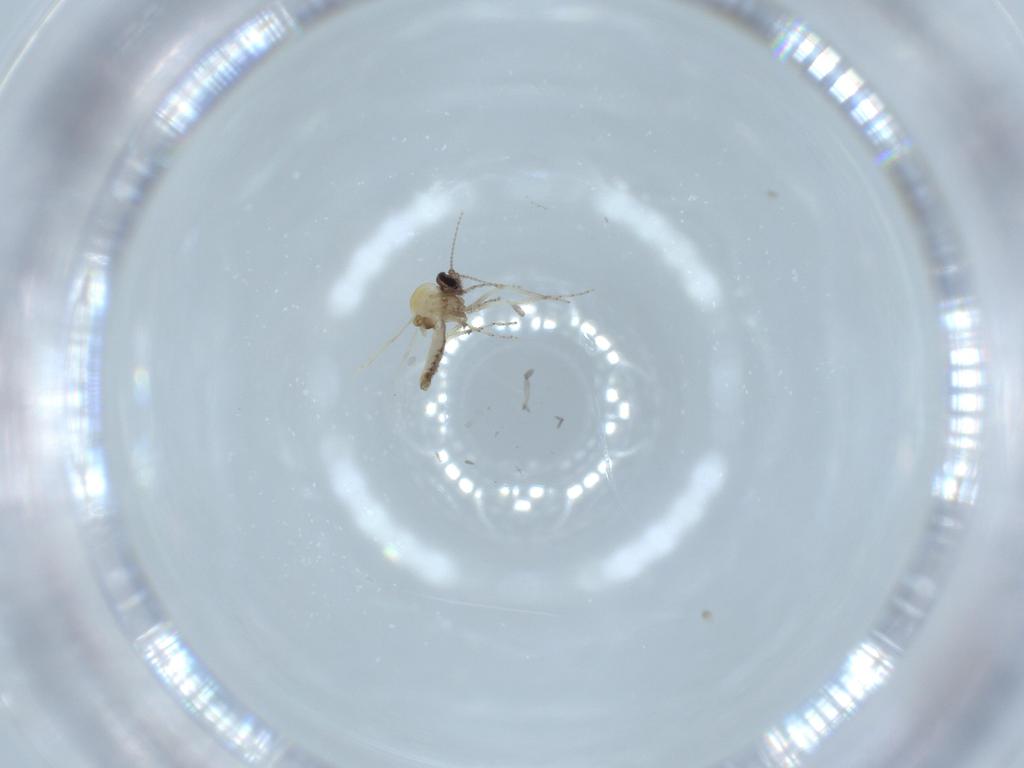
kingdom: Animalia
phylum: Arthropoda
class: Insecta
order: Diptera
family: Ceratopogonidae
